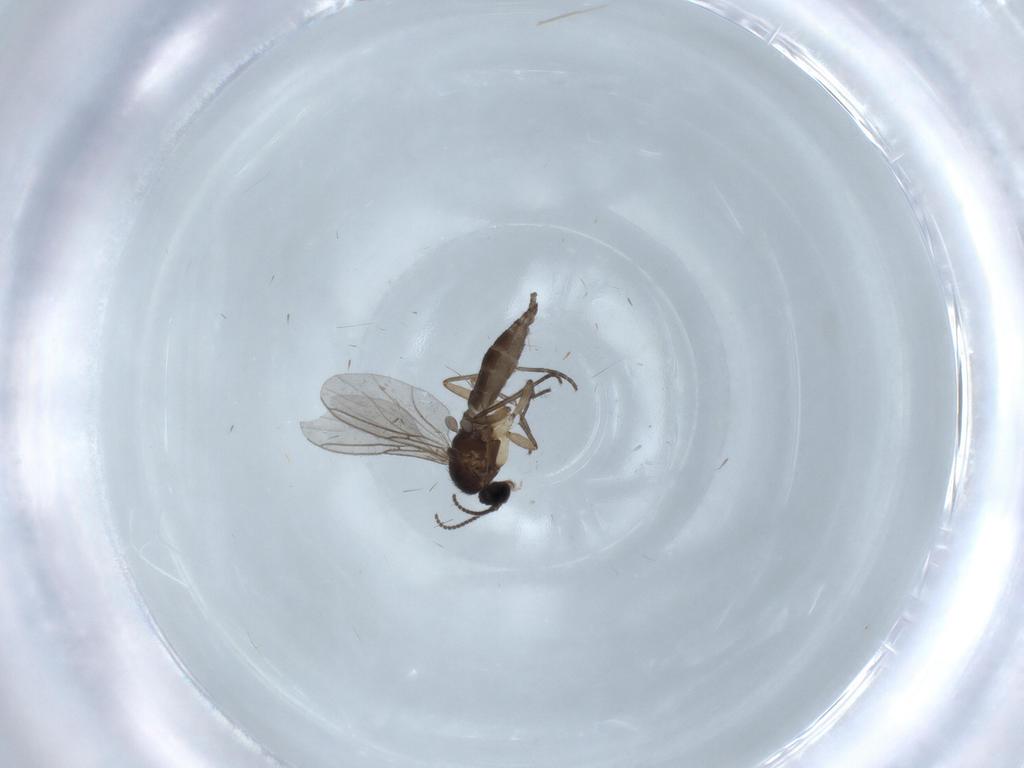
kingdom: Animalia
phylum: Arthropoda
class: Insecta
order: Diptera
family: Sciaridae
